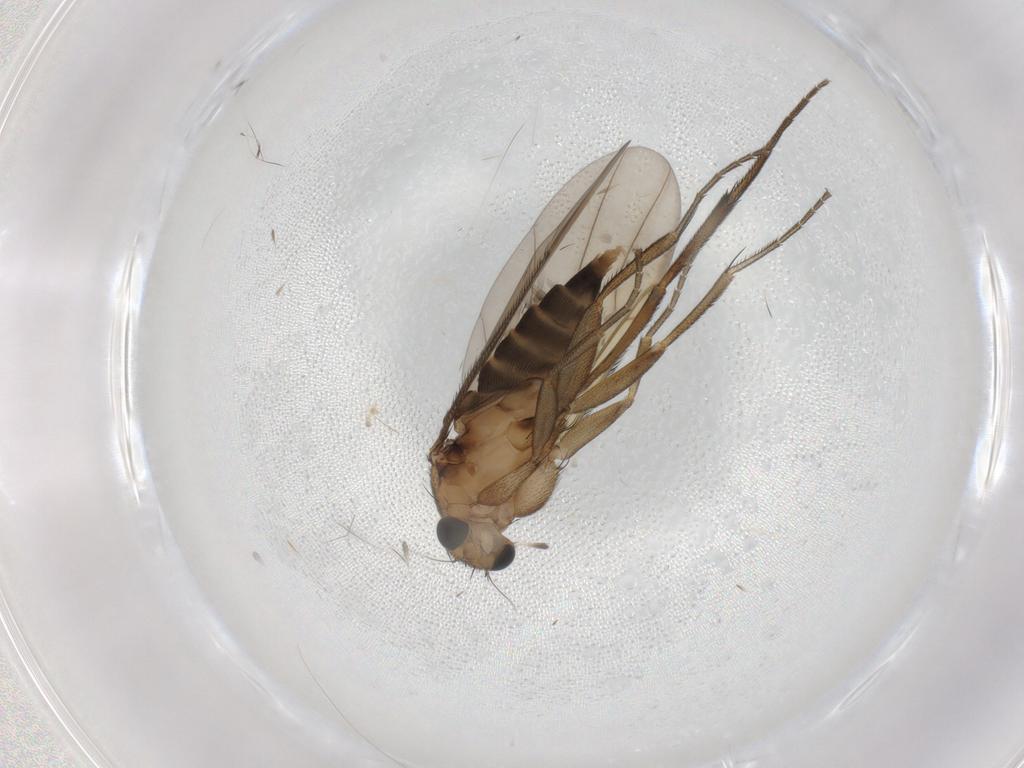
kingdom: Animalia
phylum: Arthropoda
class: Insecta
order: Diptera
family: Phoridae
